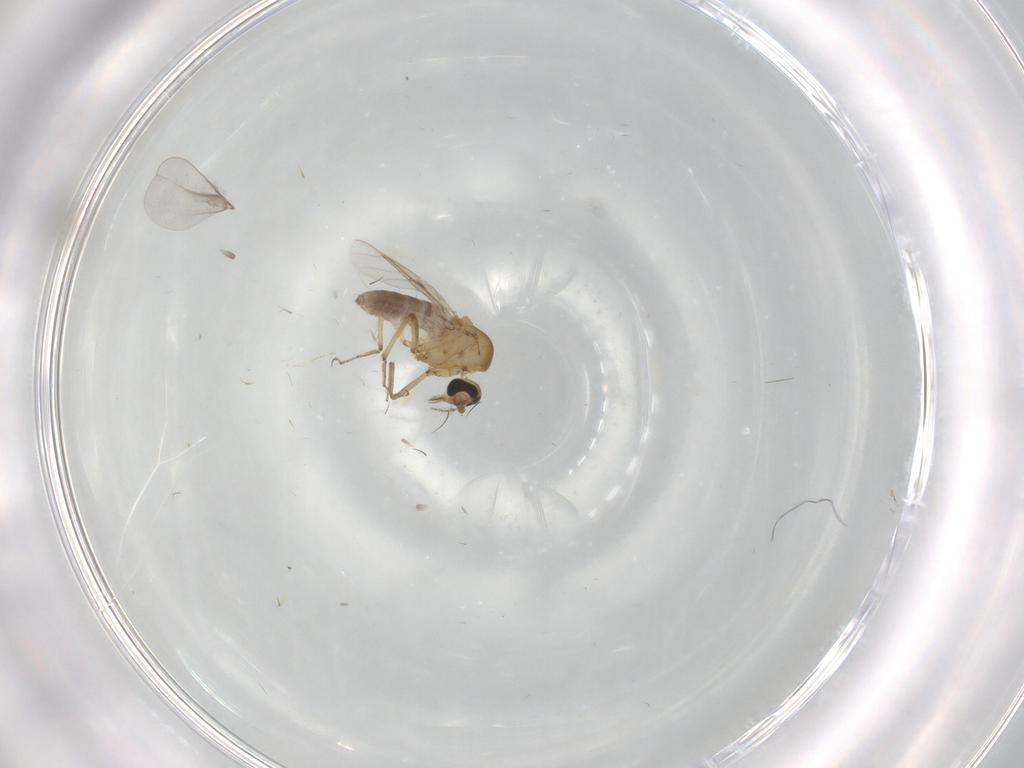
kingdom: Animalia
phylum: Arthropoda
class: Insecta
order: Diptera
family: Cecidomyiidae
